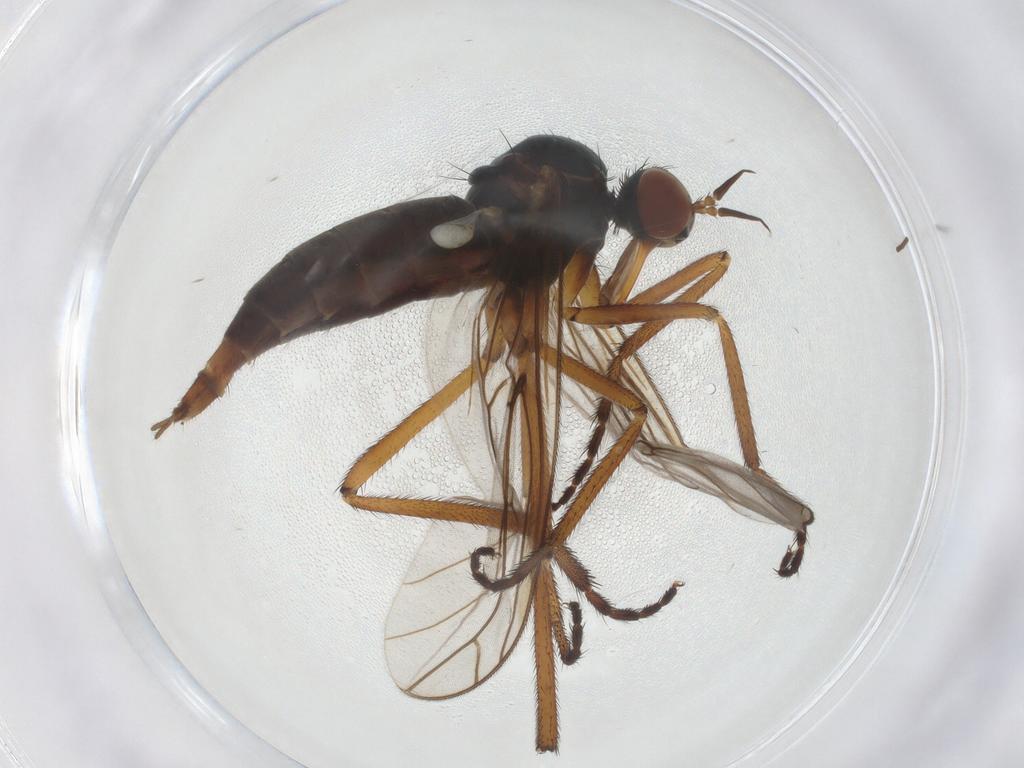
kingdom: Animalia
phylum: Arthropoda
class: Insecta
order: Diptera
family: Empididae
